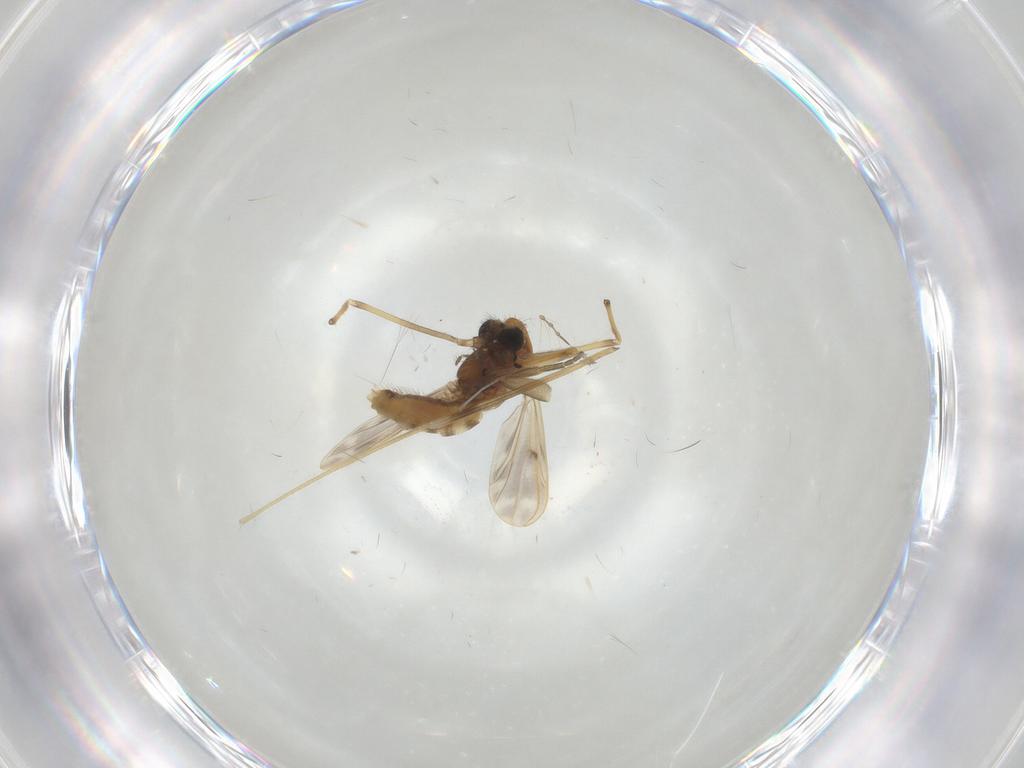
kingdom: Animalia
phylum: Arthropoda
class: Insecta
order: Diptera
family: Chironomidae
